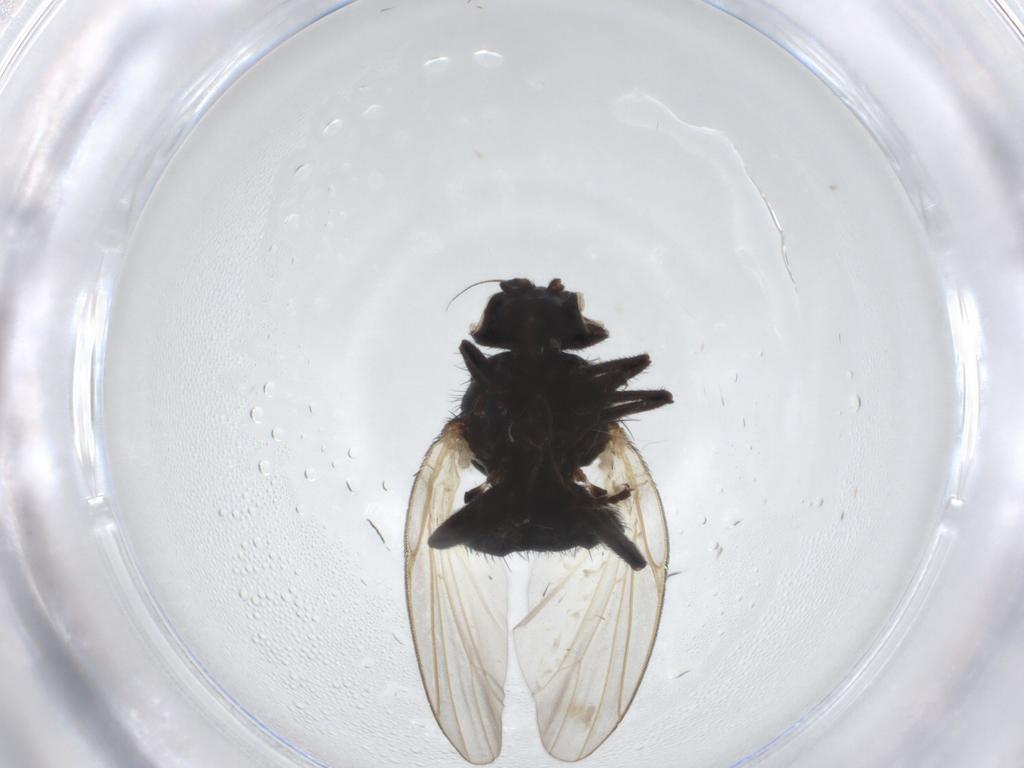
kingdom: Animalia
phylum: Arthropoda
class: Insecta
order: Diptera
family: Lonchaeidae
